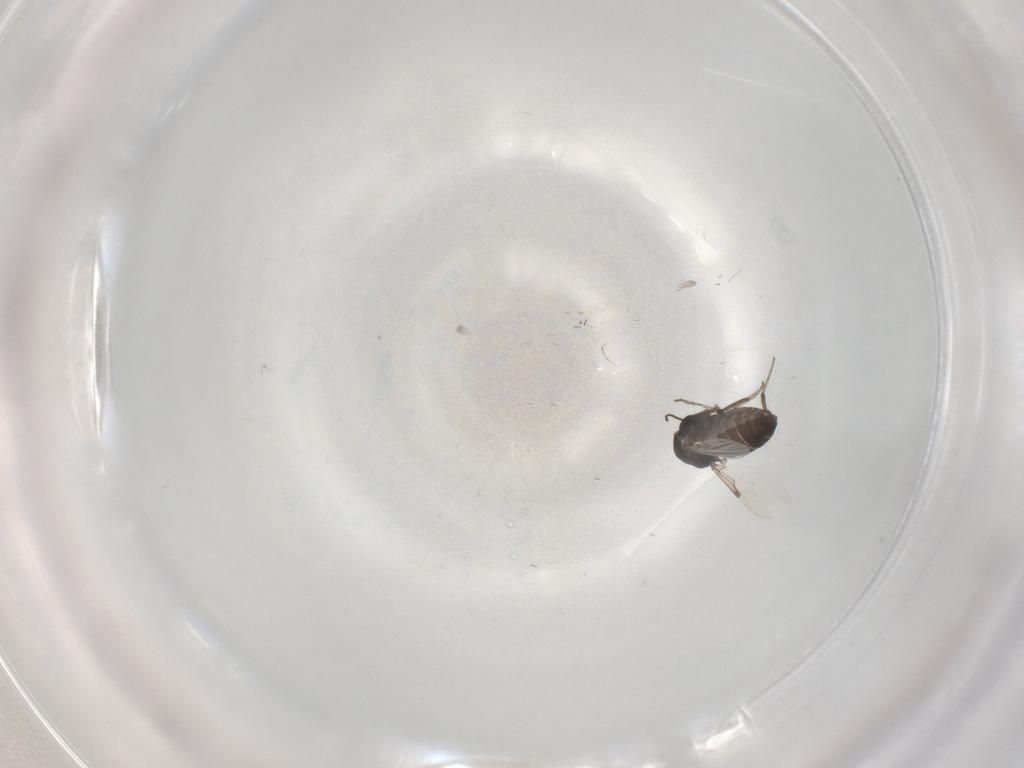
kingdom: Animalia
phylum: Arthropoda
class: Insecta
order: Diptera
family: Ceratopogonidae
